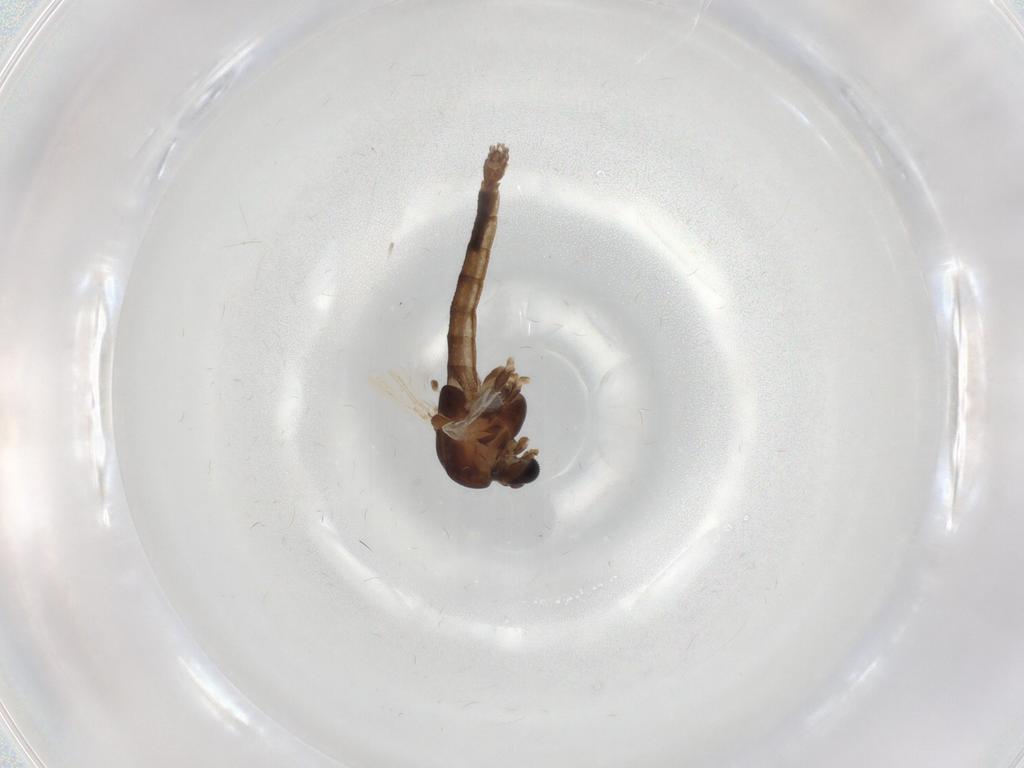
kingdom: Animalia
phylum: Arthropoda
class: Insecta
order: Diptera
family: Chironomidae
